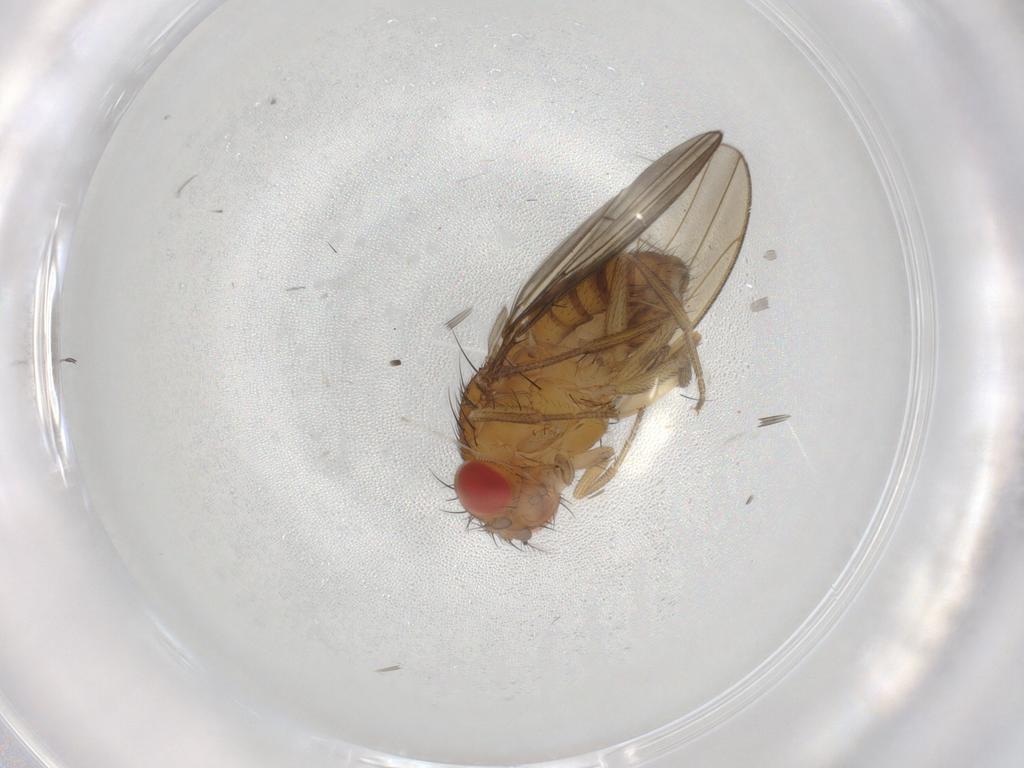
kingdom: Animalia
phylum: Arthropoda
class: Insecta
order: Diptera
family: Drosophilidae
